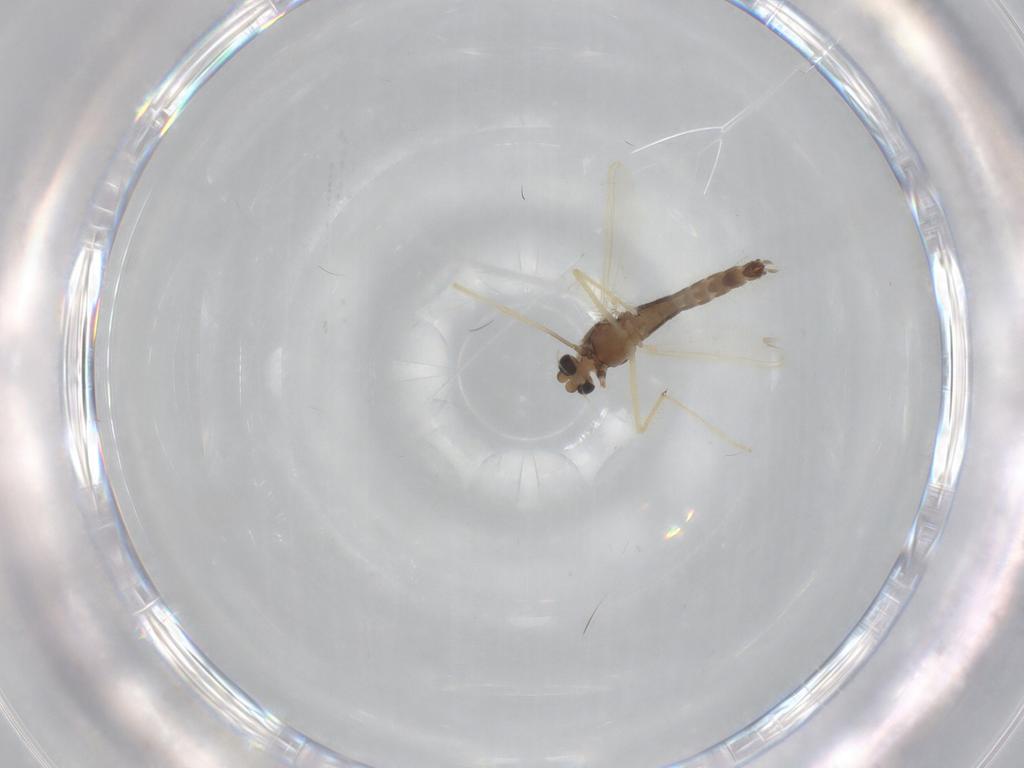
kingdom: Animalia
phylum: Arthropoda
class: Insecta
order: Diptera
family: Chironomidae
